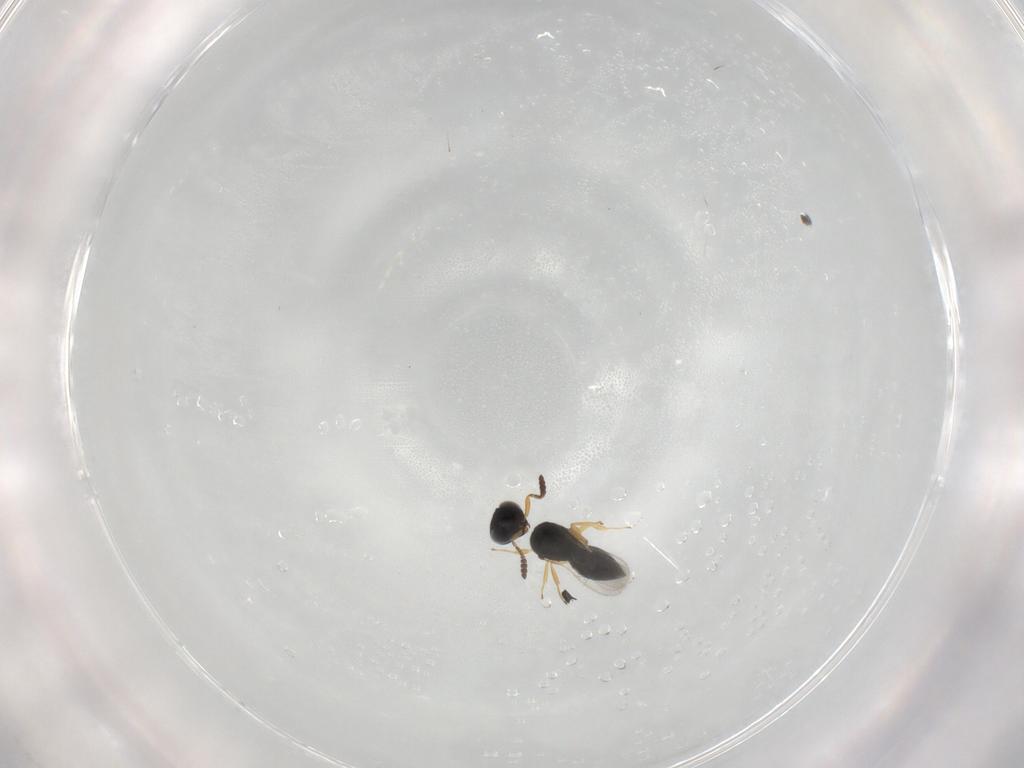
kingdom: Animalia
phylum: Arthropoda
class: Insecta
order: Hymenoptera
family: Scelionidae
